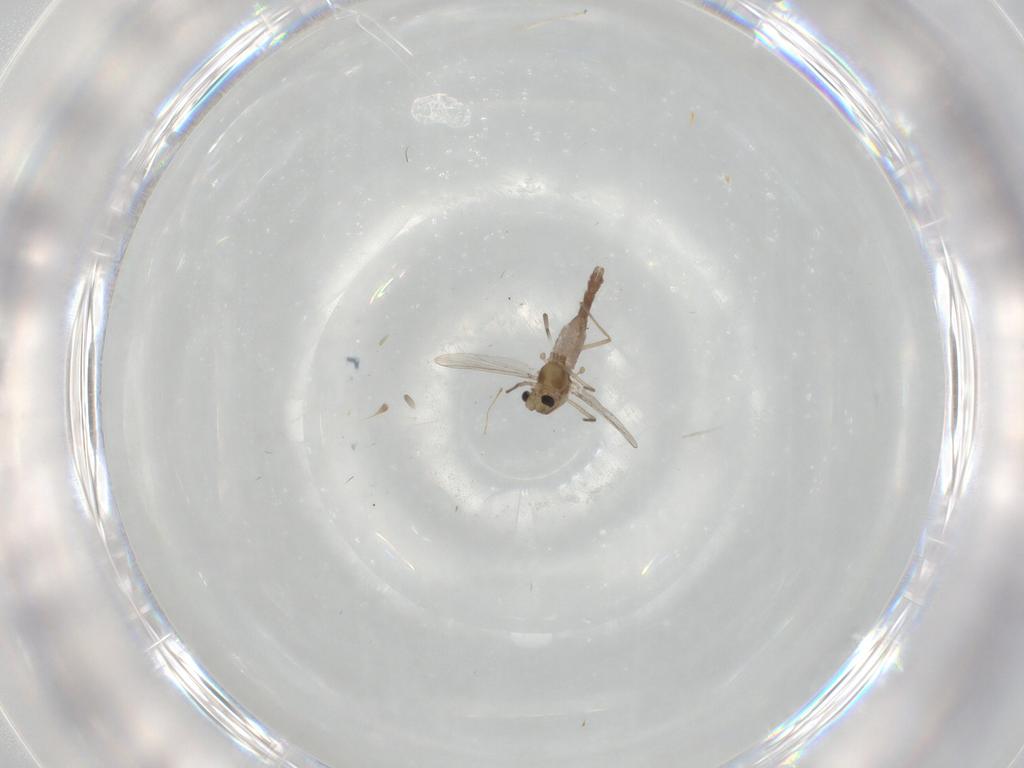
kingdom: Animalia
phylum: Arthropoda
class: Insecta
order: Diptera
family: Chironomidae
